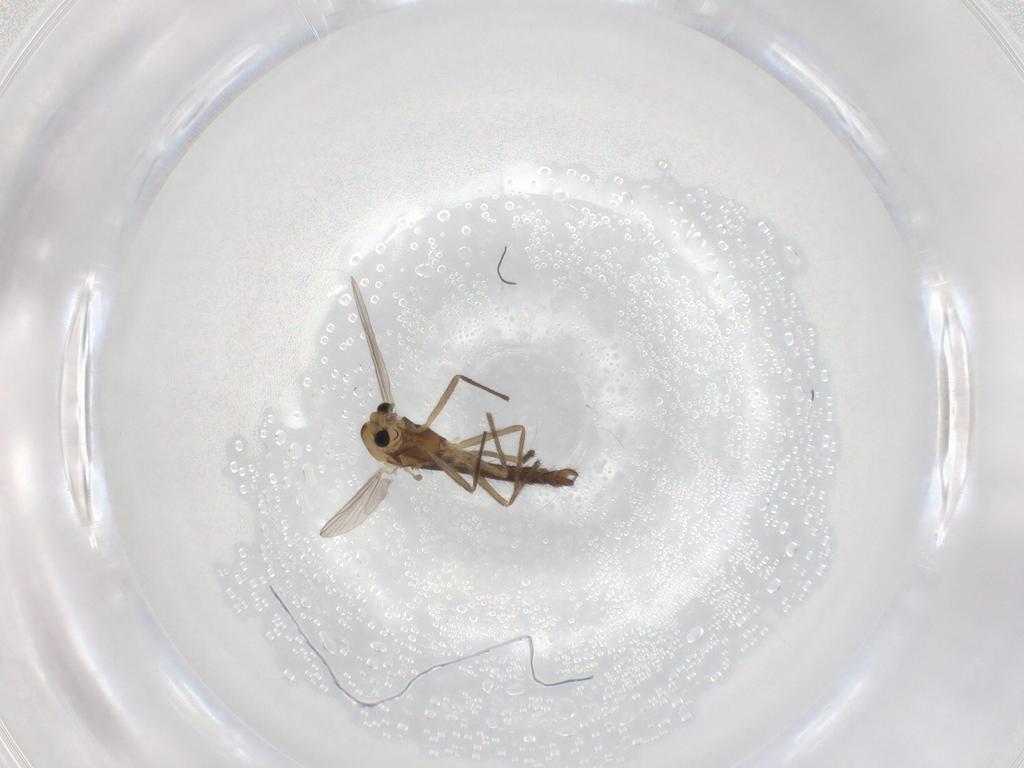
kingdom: Animalia
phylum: Arthropoda
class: Insecta
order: Diptera
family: Chironomidae
